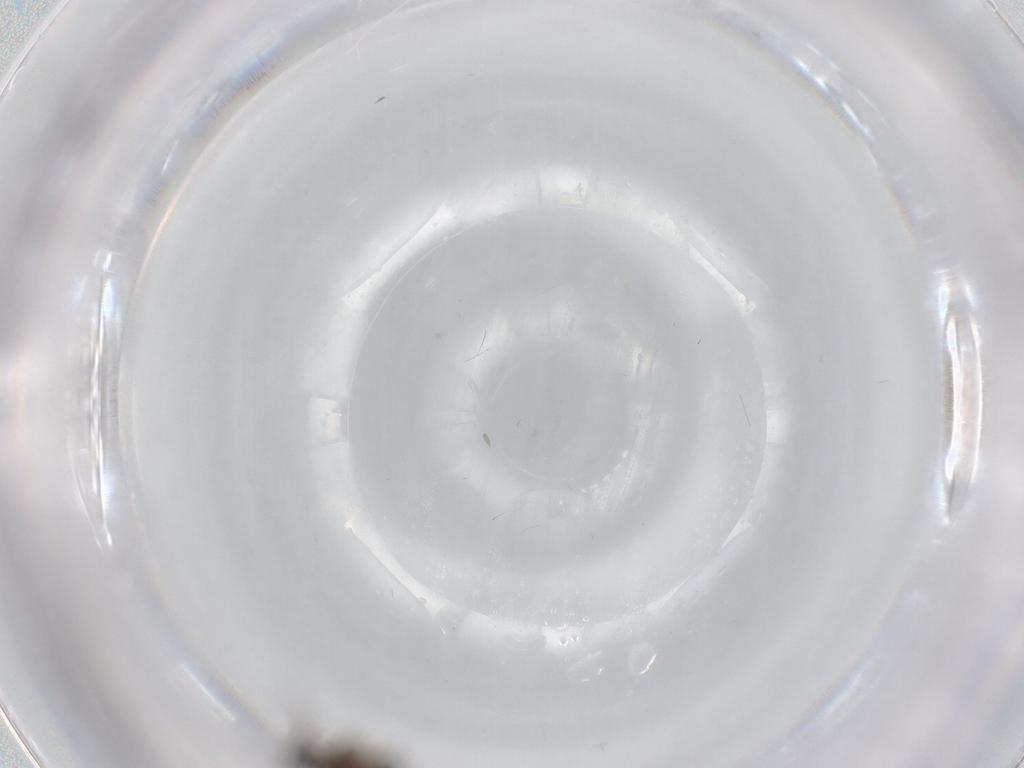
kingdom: Animalia
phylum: Arthropoda
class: Insecta
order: Diptera
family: Phoridae
